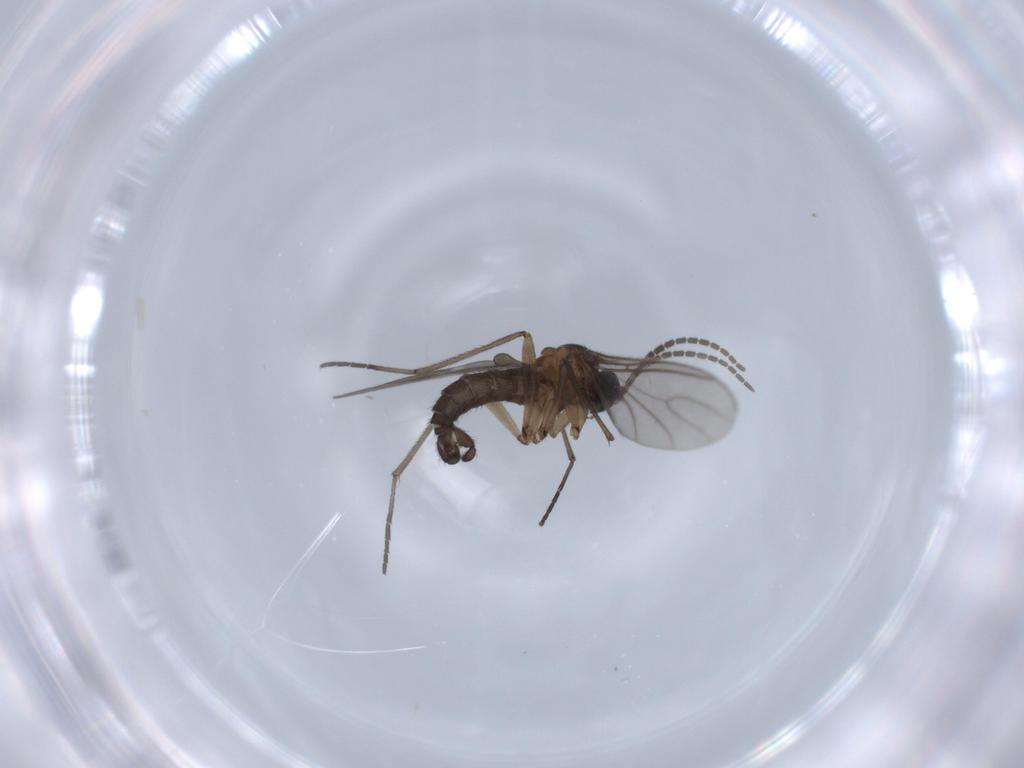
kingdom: Animalia
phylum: Arthropoda
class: Insecta
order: Diptera
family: Sciaridae
